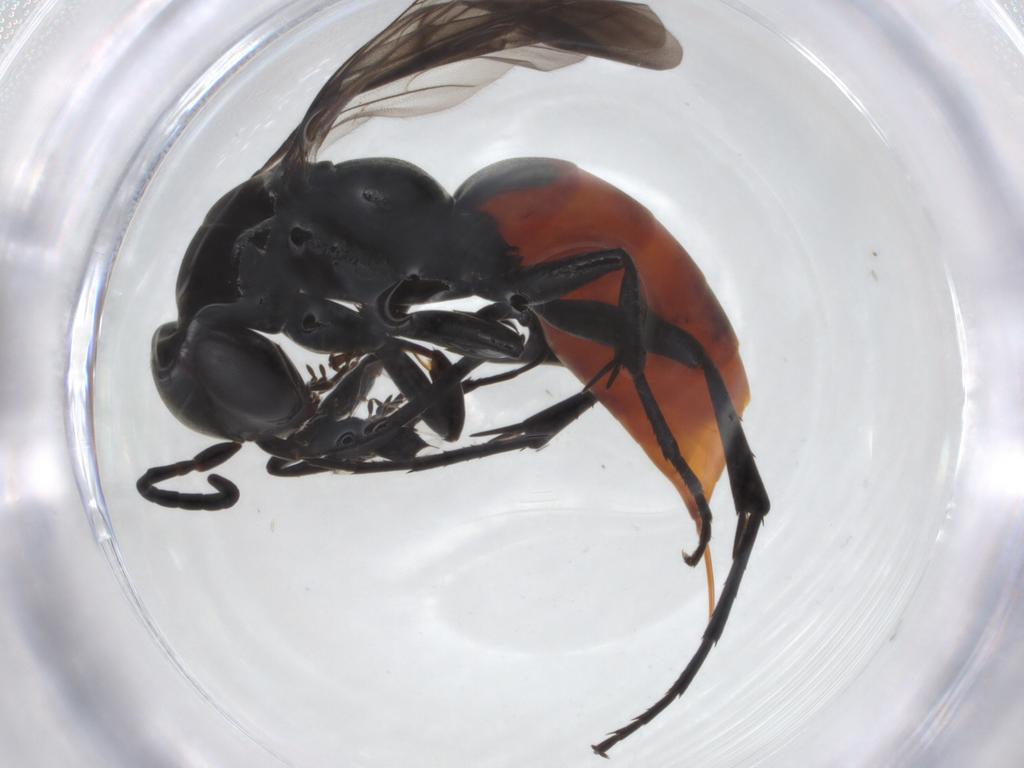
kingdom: Animalia
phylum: Arthropoda
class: Insecta
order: Hymenoptera
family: Pompilidae
